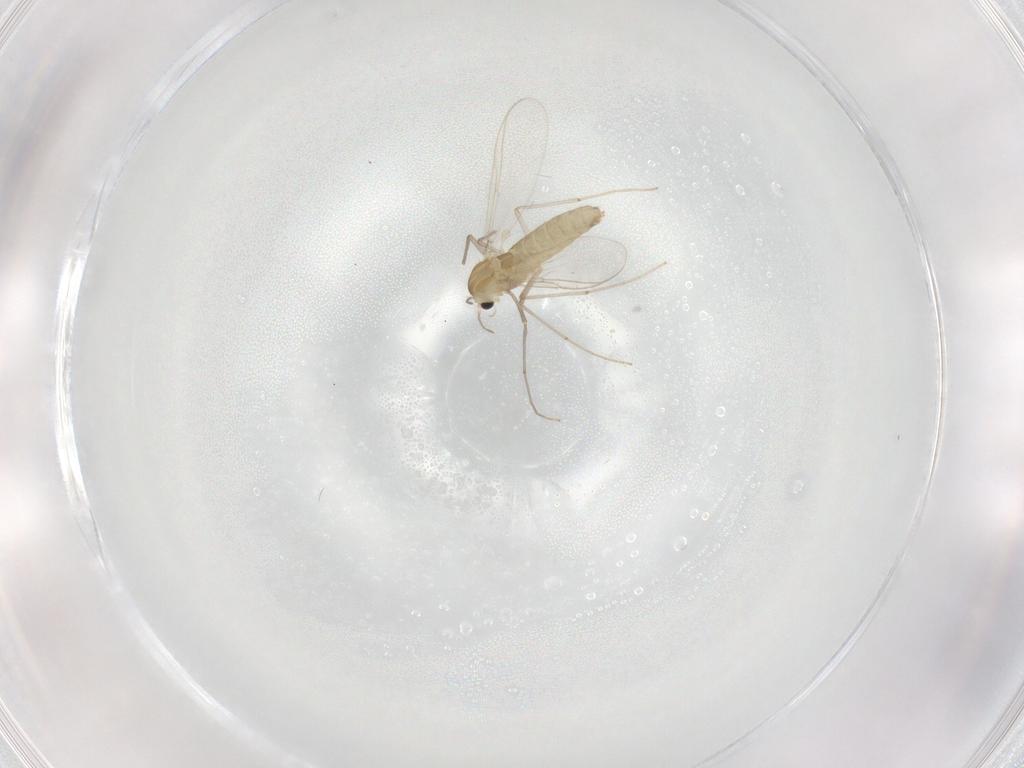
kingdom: Animalia
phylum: Arthropoda
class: Insecta
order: Diptera
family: Chironomidae
